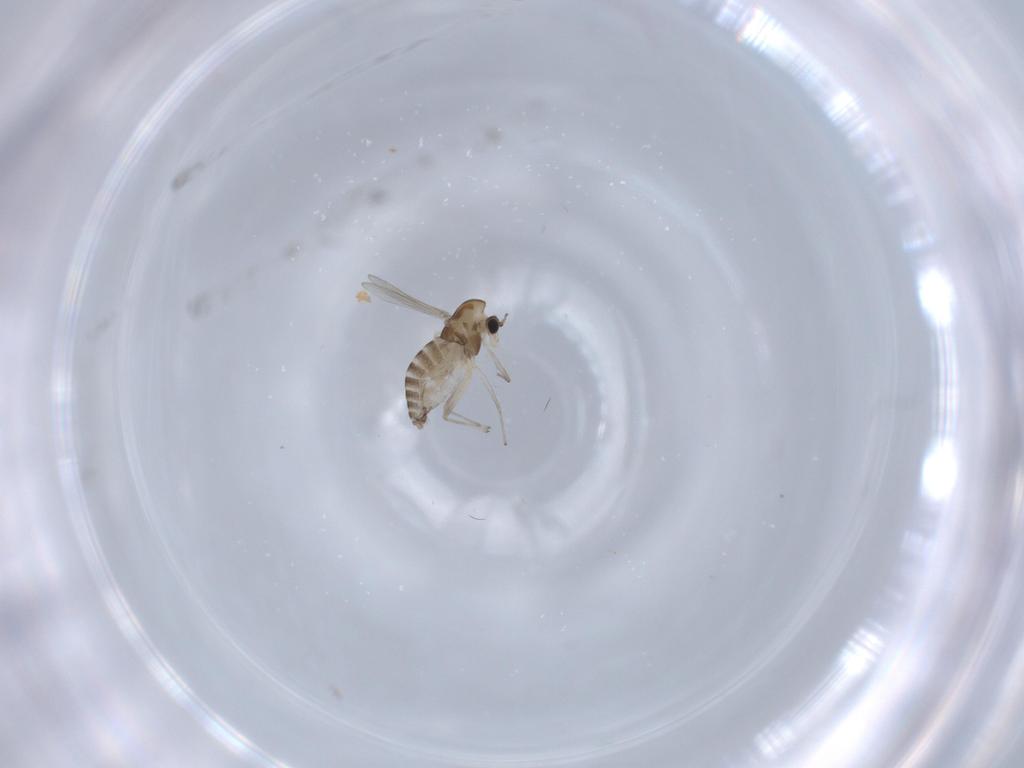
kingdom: Animalia
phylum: Arthropoda
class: Insecta
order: Diptera
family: Chironomidae
